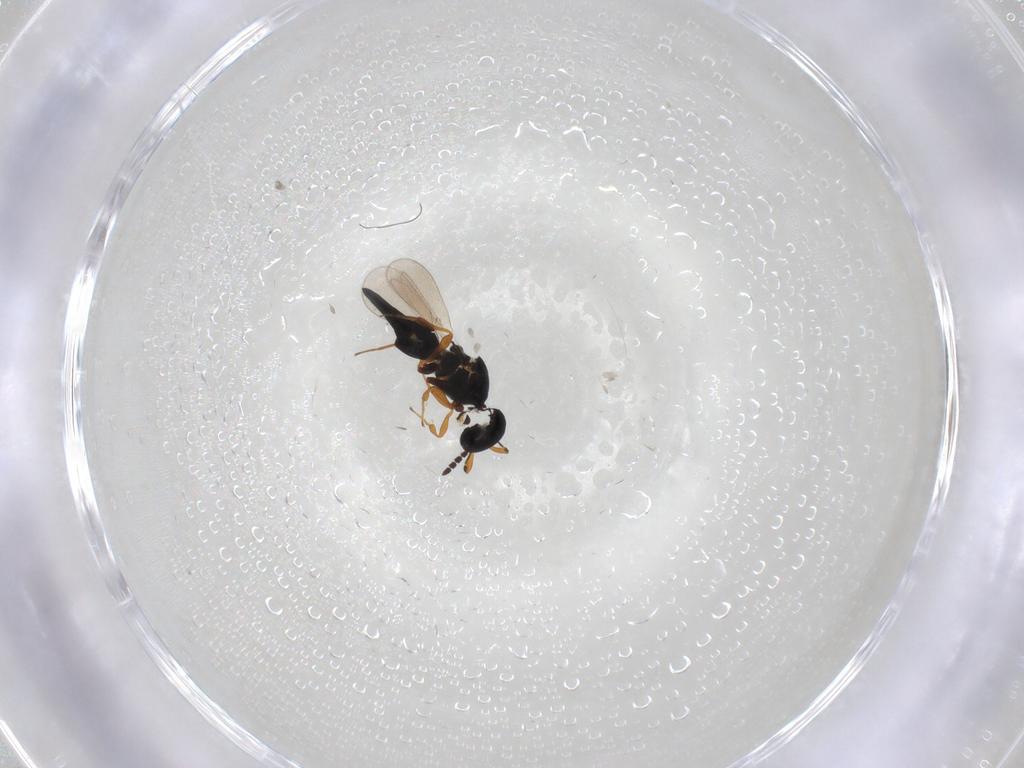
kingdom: Animalia
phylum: Arthropoda
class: Insecta
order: Hymenoptera
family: Platygastridae
